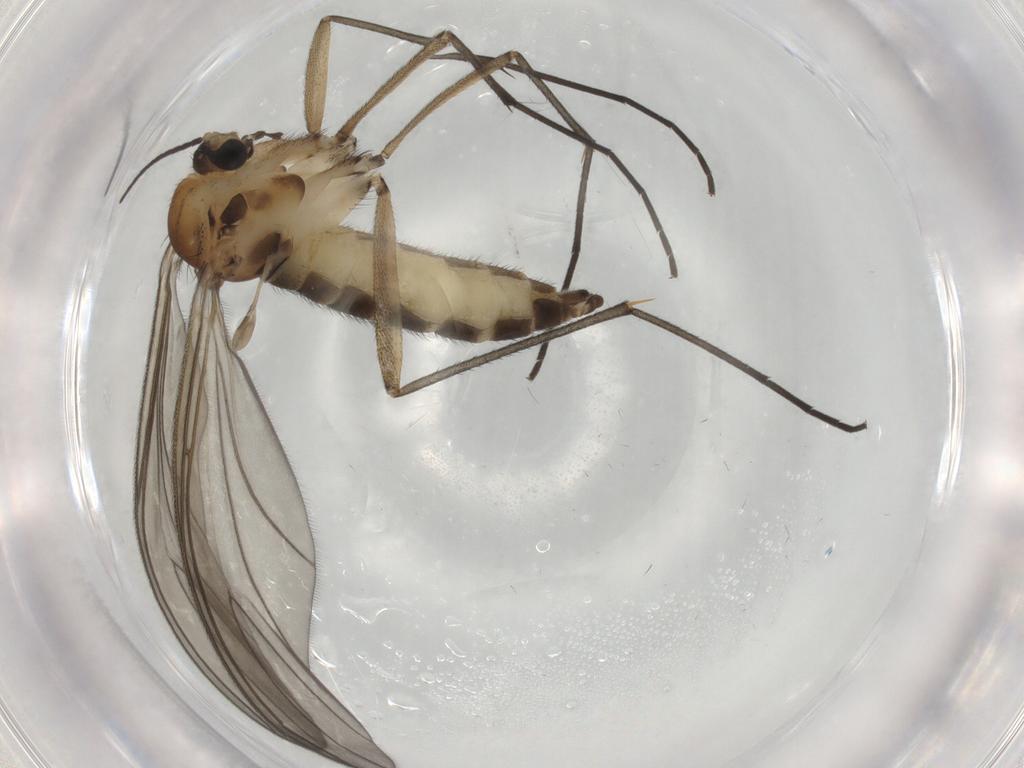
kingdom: Animalia
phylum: Arthropoda
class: Insecta
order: Diptera
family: Sciaridae
